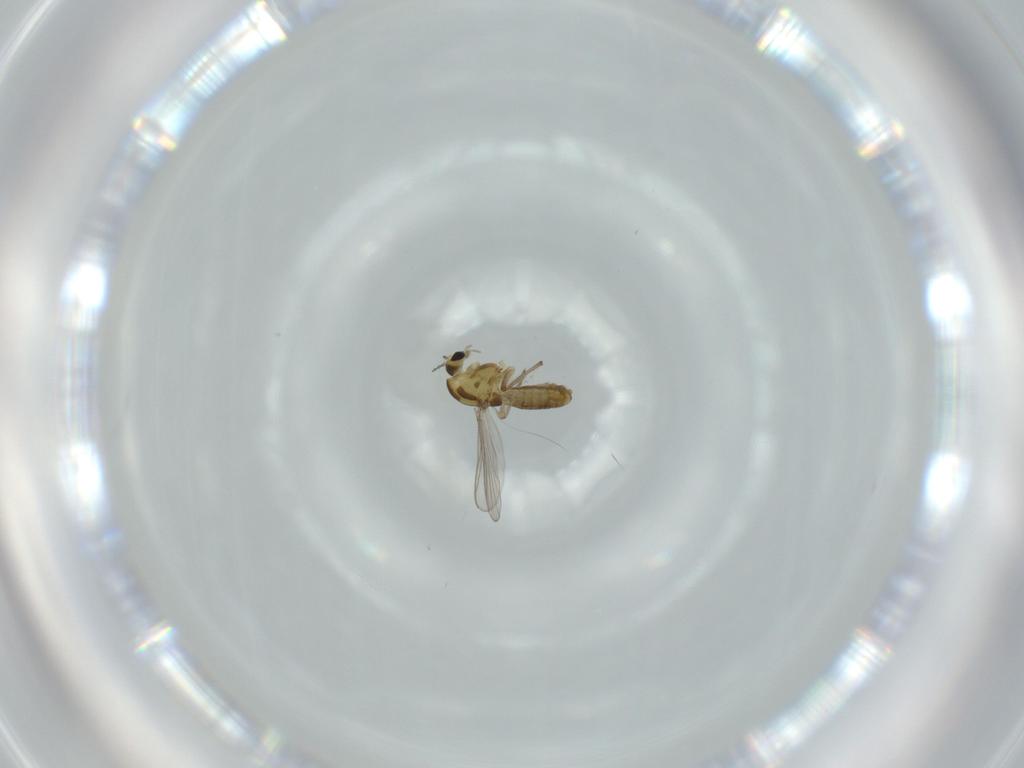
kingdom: Animalia
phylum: Arthropoda
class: Insecta
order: Diptera
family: Chironomidae
